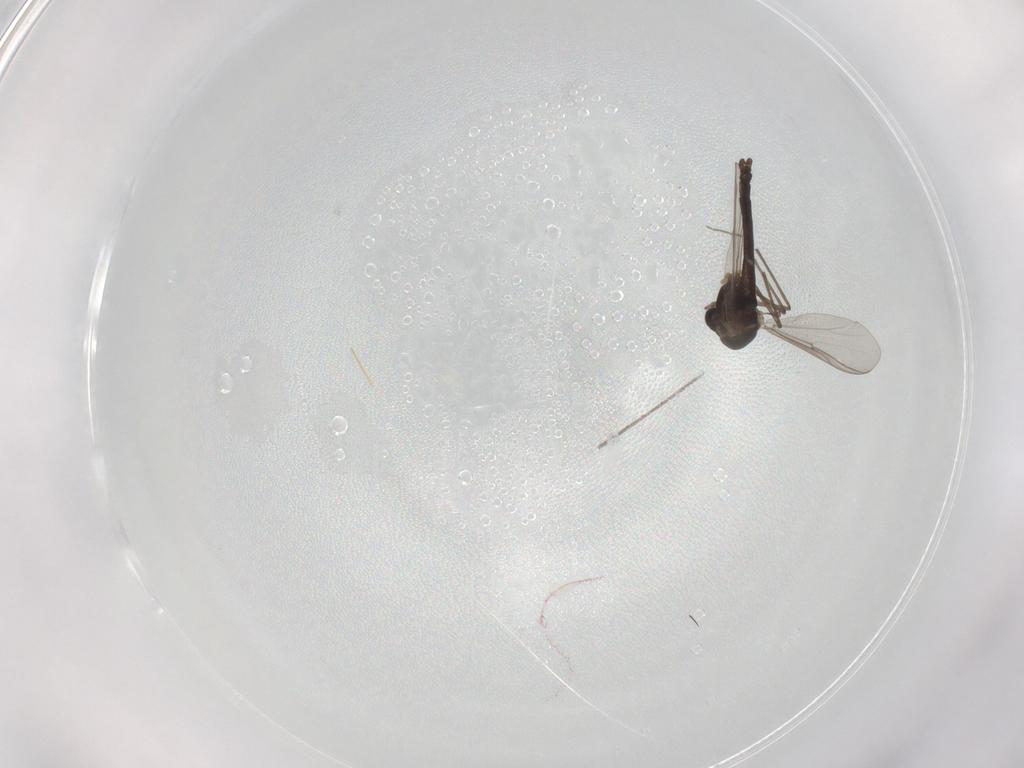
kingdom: Animalia
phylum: Arthropoda
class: Insecta
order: Diptera
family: Chironomidae
